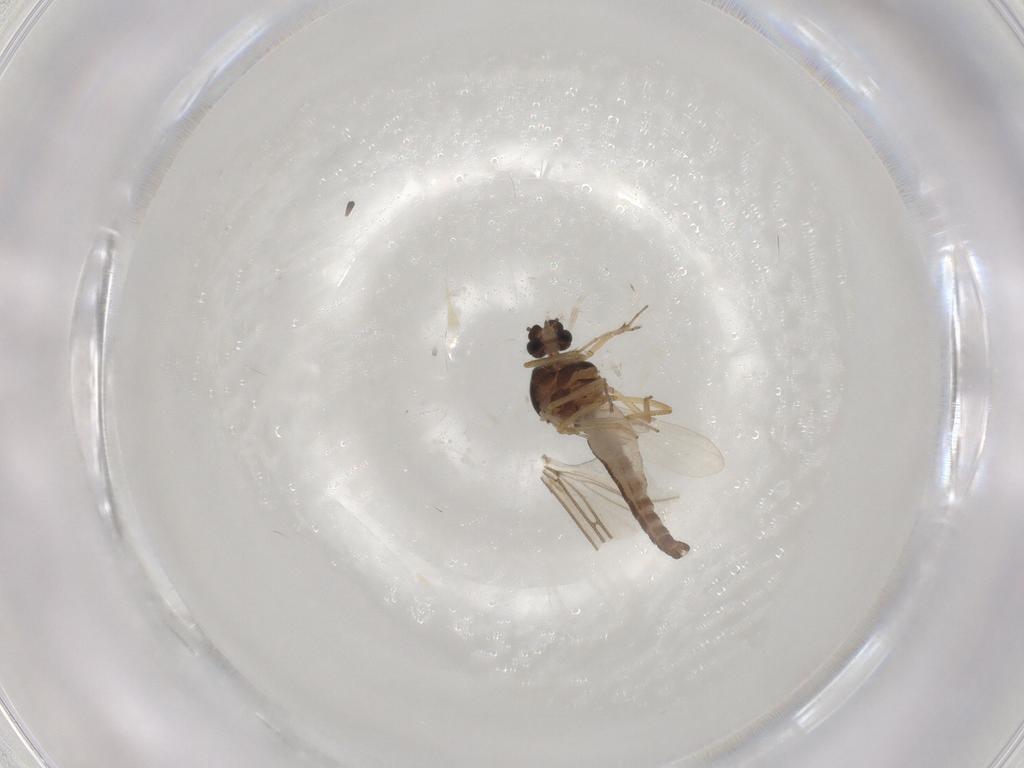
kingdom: Animalia
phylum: Arthropoda
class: Insecta
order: Diptera
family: Ceratopogonidae
